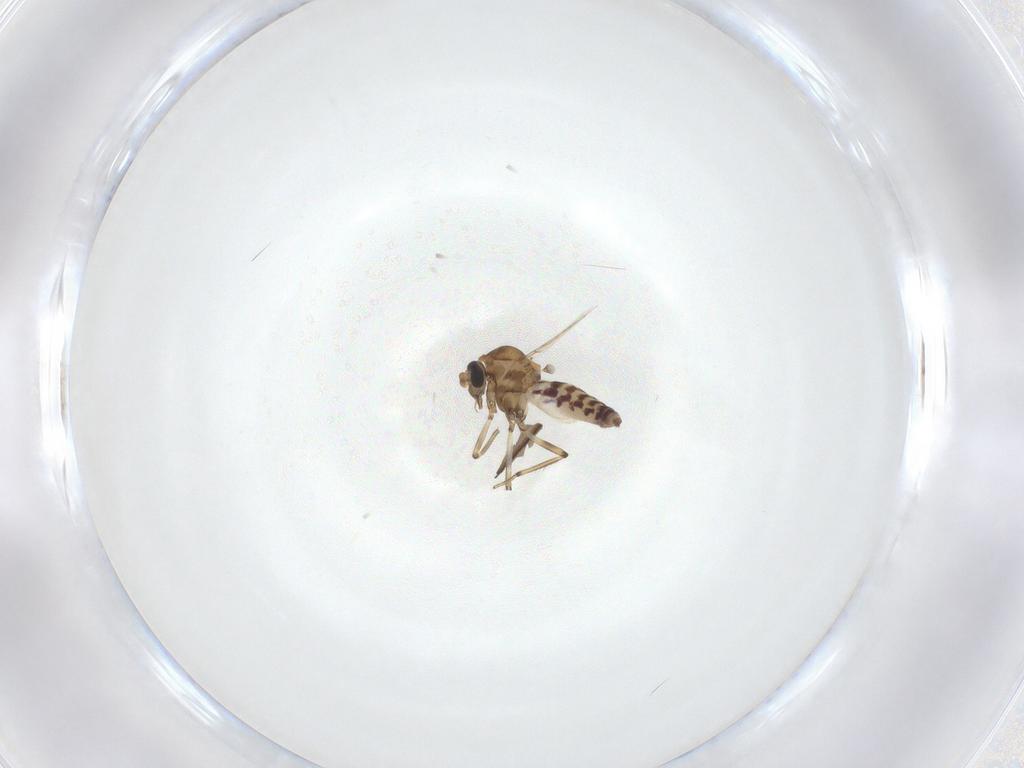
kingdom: Animalia
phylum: Arthropoda
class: Insecta
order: Diptera
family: Ceratopogonidae
